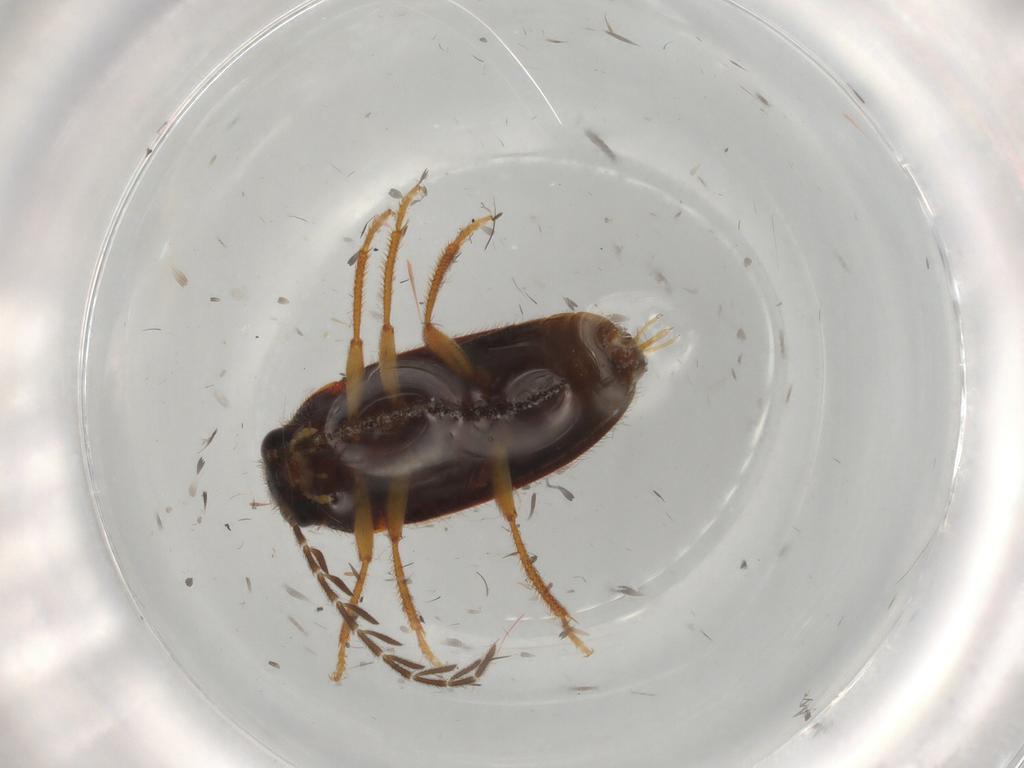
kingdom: Animalia
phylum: Arthropoda
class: Insecta
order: Coleoptera
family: Chrysomelidae
